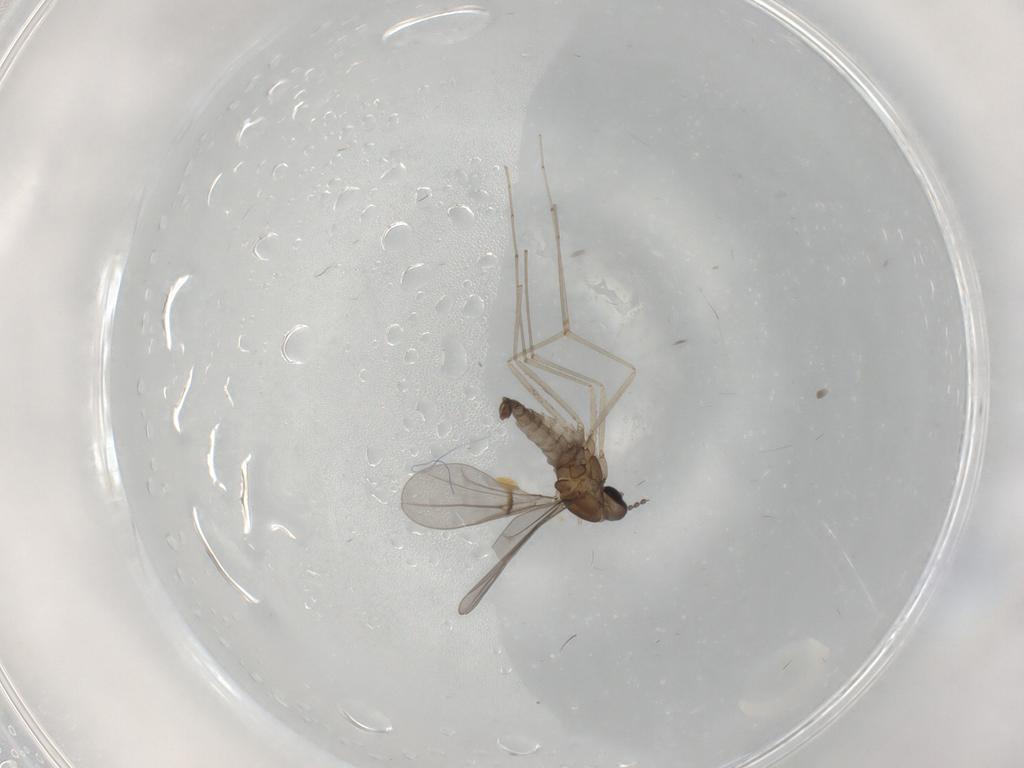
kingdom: Animalia
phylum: Arthropoda
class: Insecta
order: Diptera
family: Cecidomyiidae
